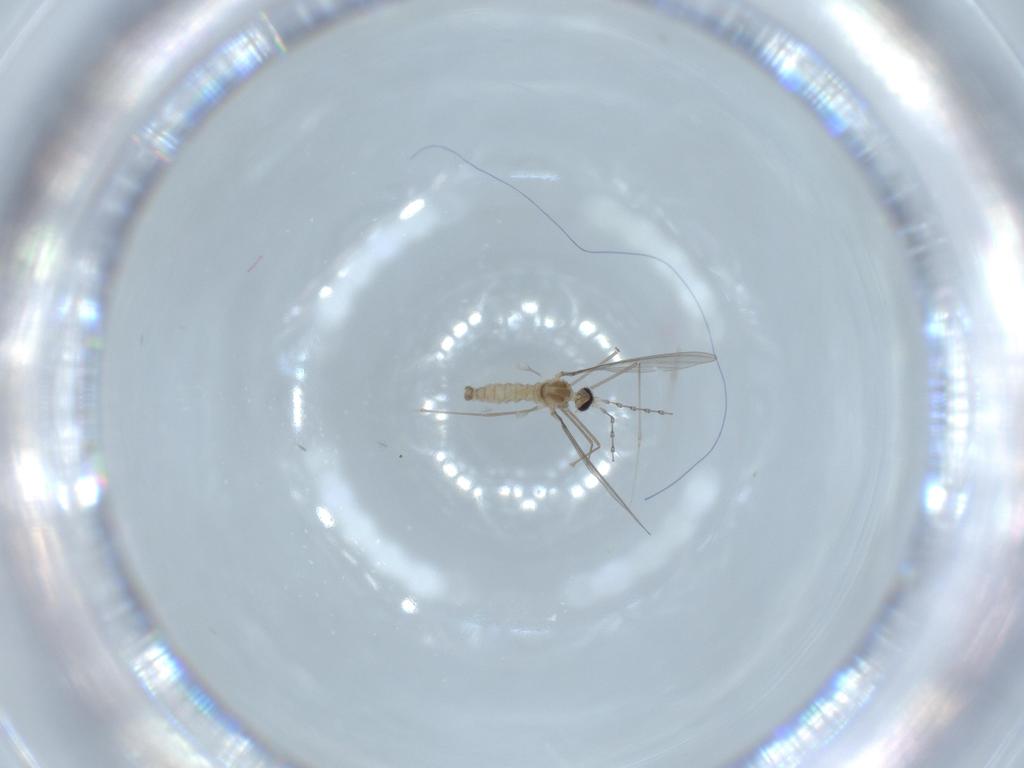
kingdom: Animalia
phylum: Arthropoda
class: Insecta
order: Diptera
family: Cecidomyiidae
